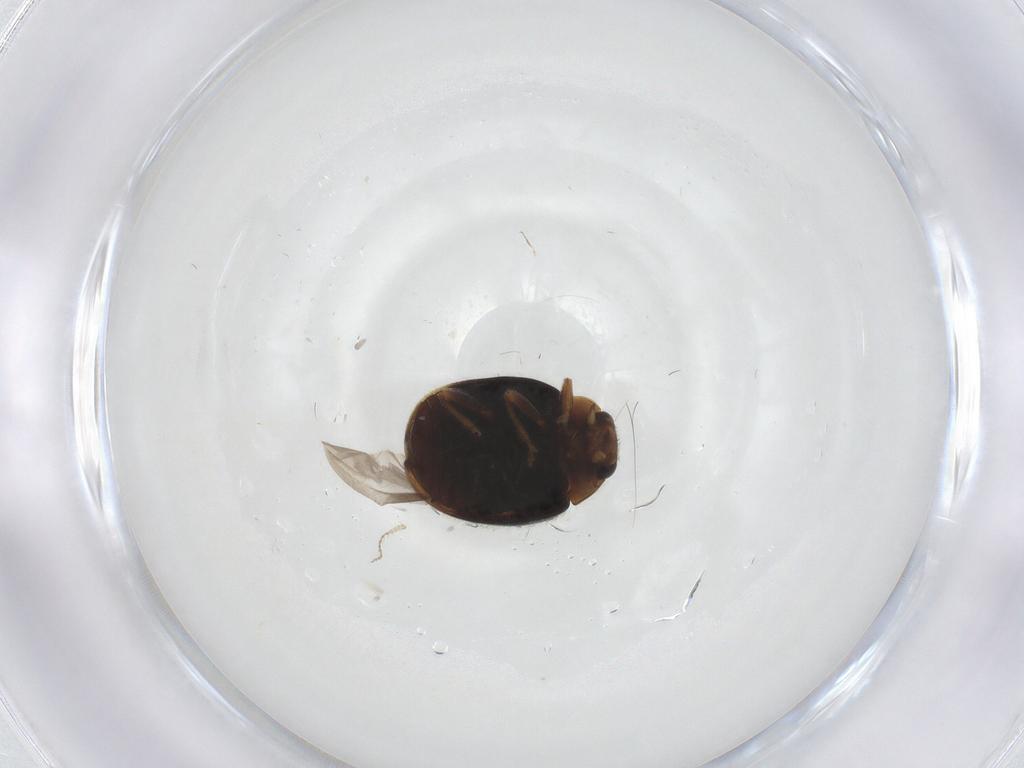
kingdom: Animalia
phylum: Arthropoda
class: Insecta
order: Coleoptera
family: Coccinellidae
